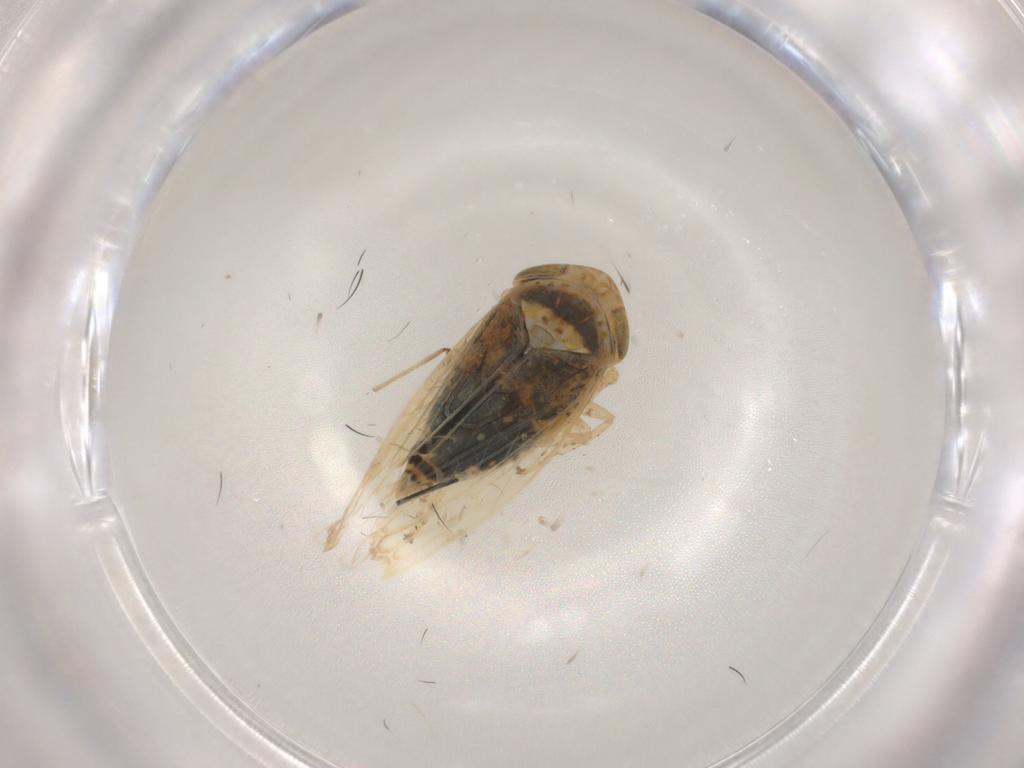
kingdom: Animalia
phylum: Arthropoda
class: Insecta
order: Hemiptera
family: Cicadellidae
